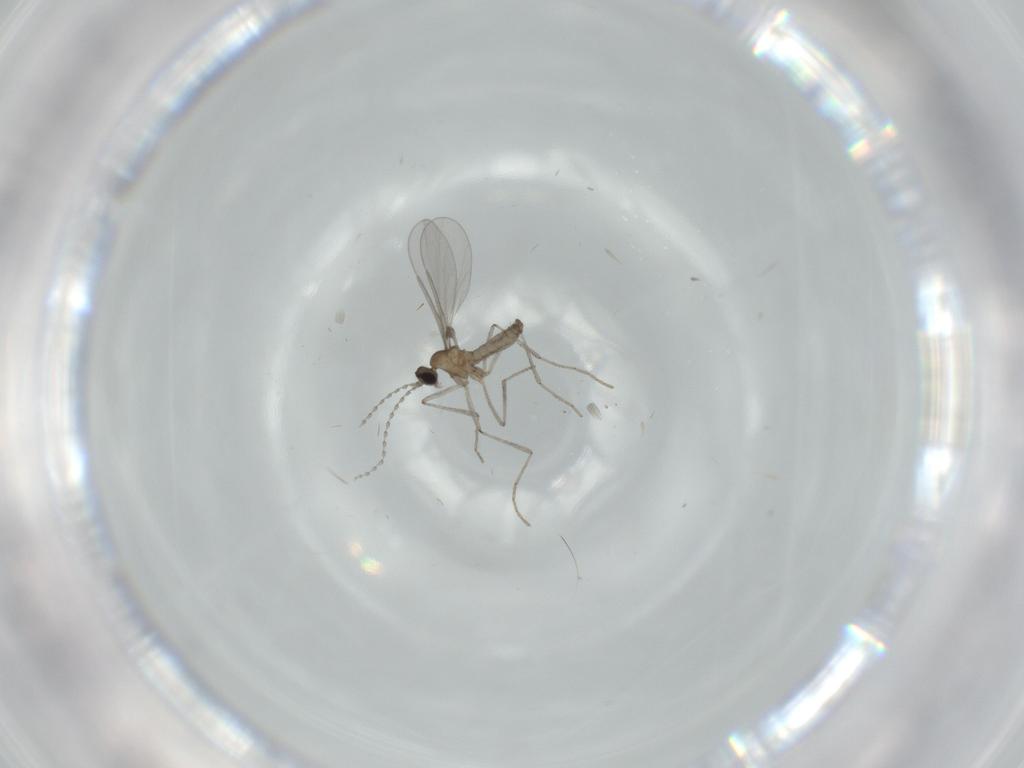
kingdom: Animalia
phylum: Arthropoda
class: Insecta
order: Diptera
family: Cecidomyiidae
